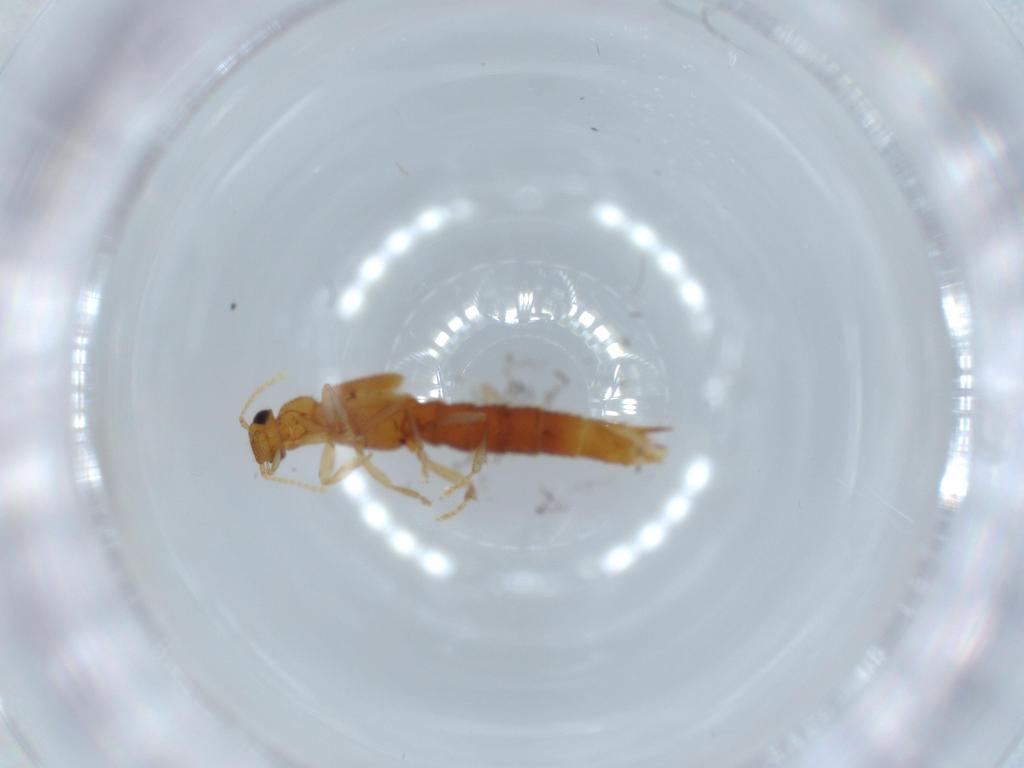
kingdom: Animalia
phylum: Arthropoda
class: Insecta
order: Coleoptera
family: Staphylinidae
